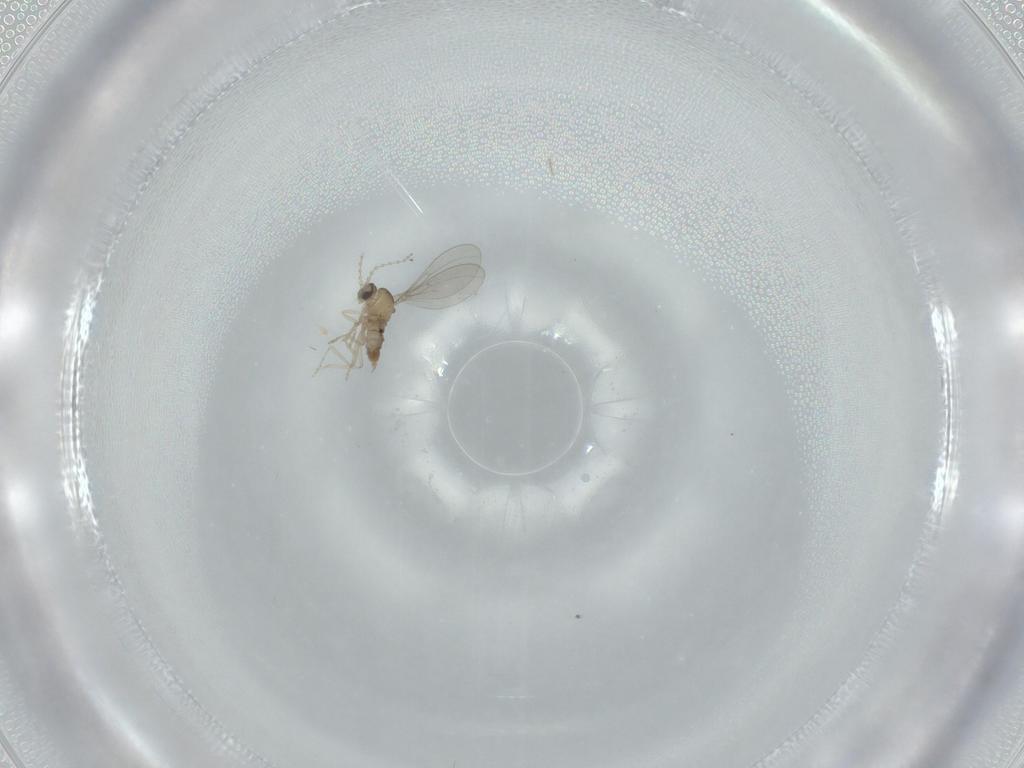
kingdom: Animalia
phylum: Arthropoda
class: Insecta
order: Diptera
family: Cecidomyiidae
